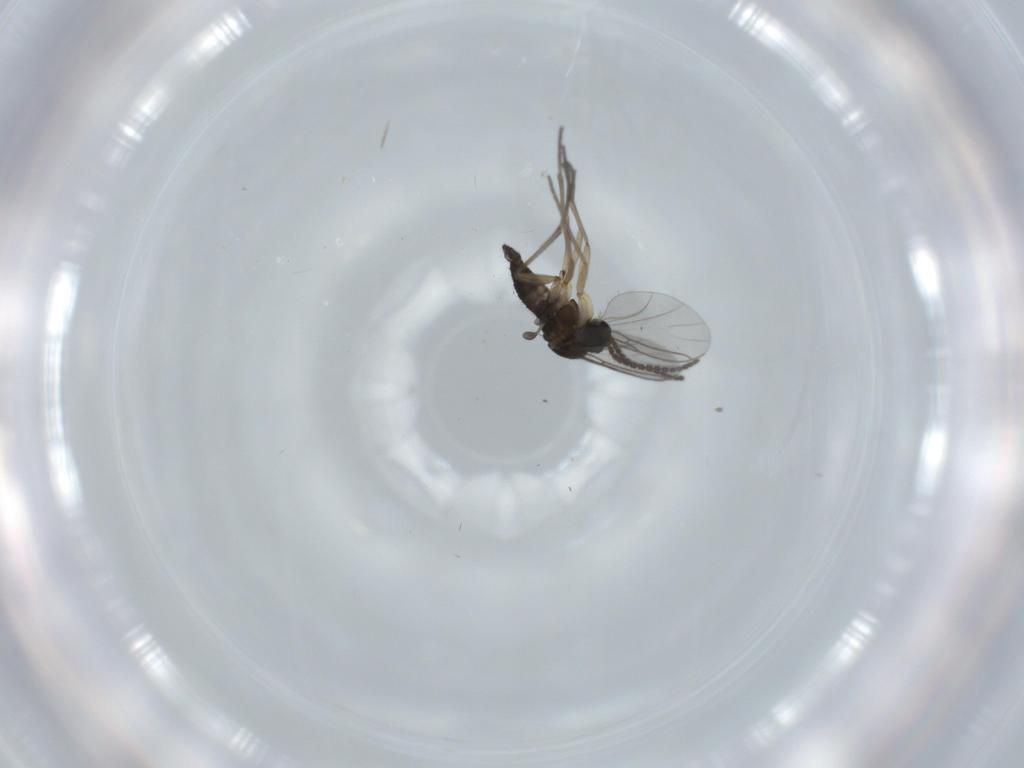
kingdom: Animalia
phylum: Arthropoda
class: Insecta
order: Diptera
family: Sciaridae
